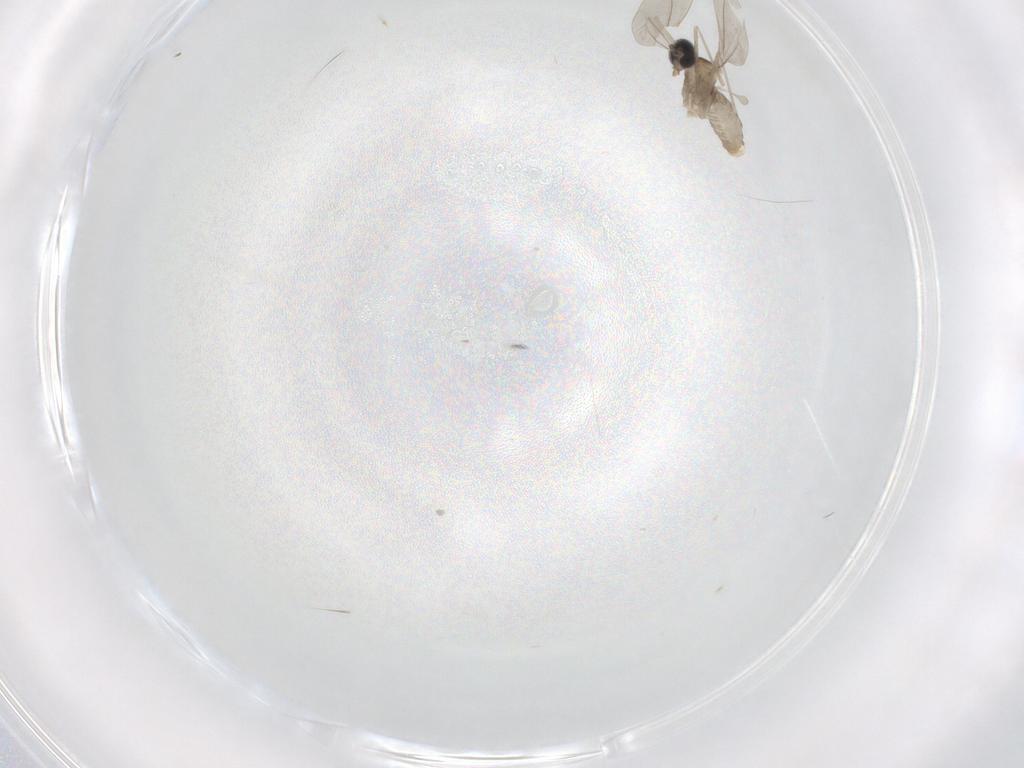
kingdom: Animalia
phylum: Arthropoda
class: Insecta
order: Diptera
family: Cecidomyiidae
